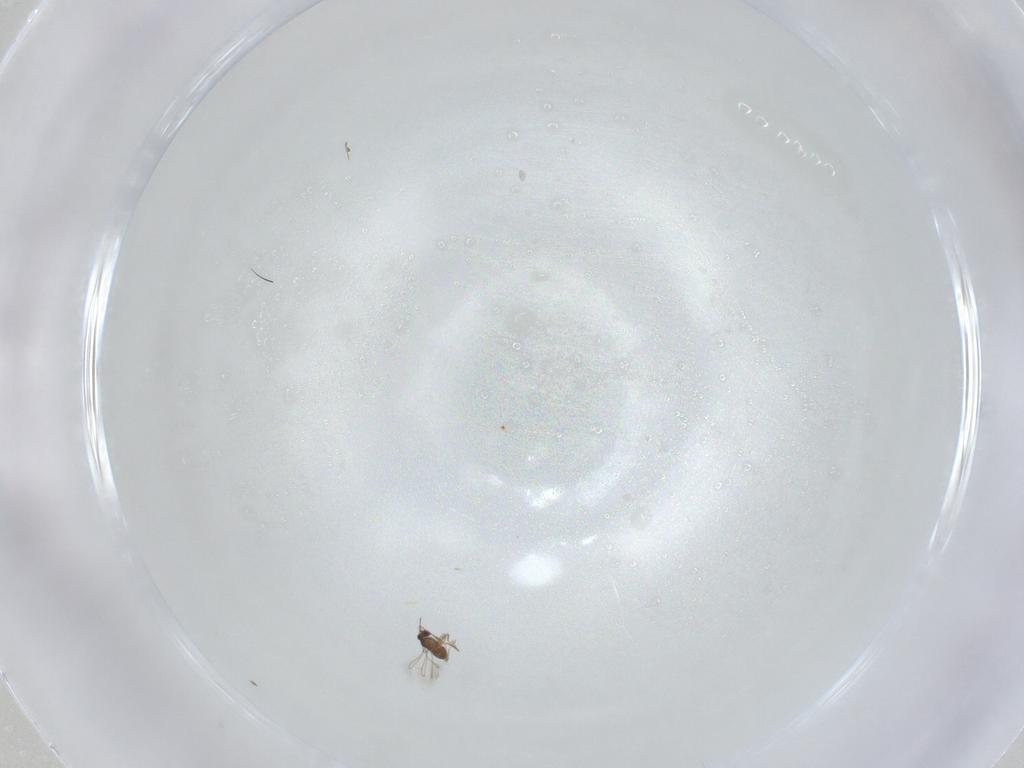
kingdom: Animalia
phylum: Arthropoda
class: Insecta
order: Hymenoptera
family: Mymaridae
